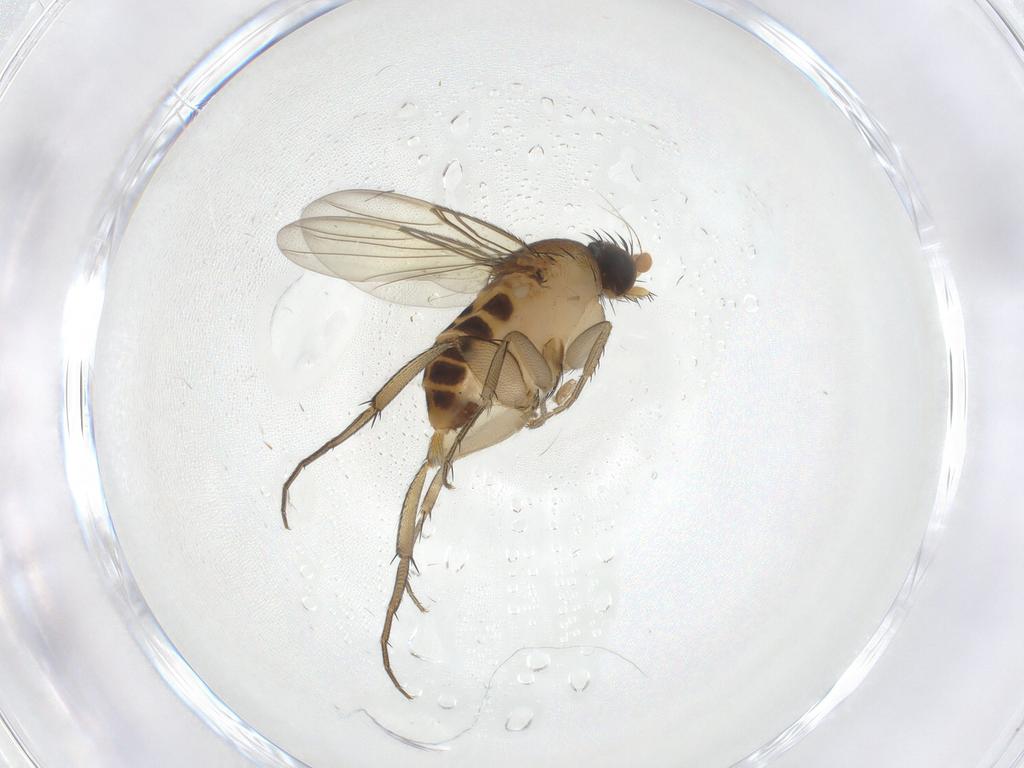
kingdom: Animalia
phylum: Arthropoda
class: Insecta
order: Diptera
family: Phoridae
